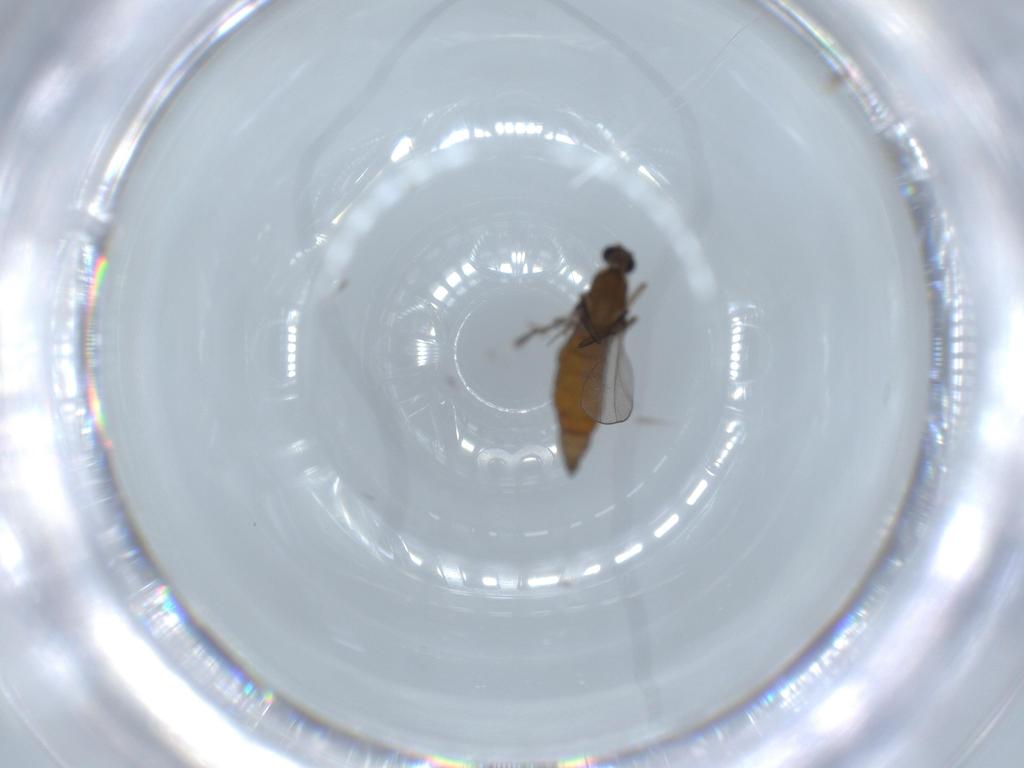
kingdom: Animalia
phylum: Arthropoda
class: Insecta
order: Diptera
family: Cecidomyiidae
